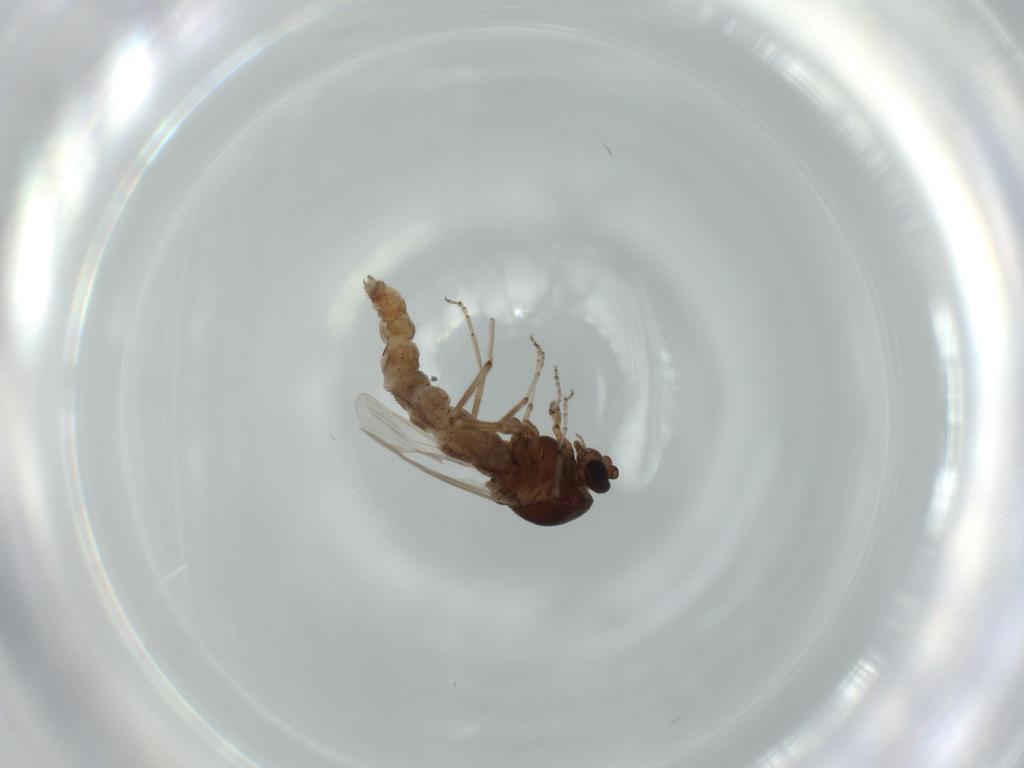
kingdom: Animalia
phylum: Arthropoda
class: Insecta
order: Diptera
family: Ceratopogonidae
